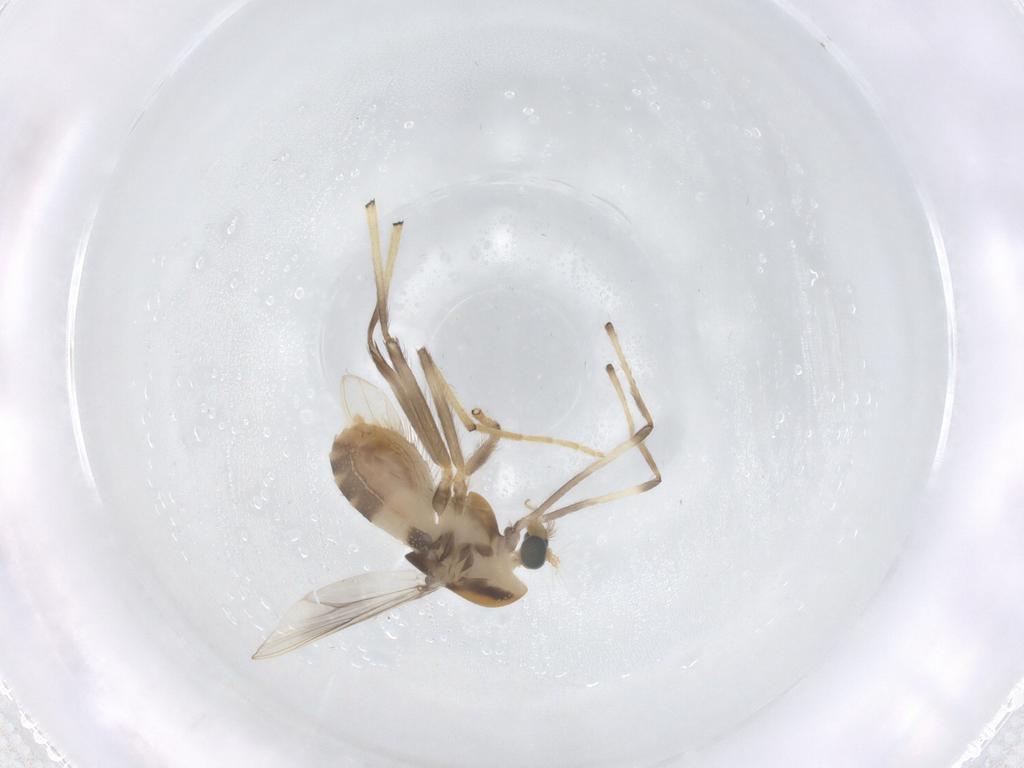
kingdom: Animalia
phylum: Arthropoda
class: Insecta
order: Diptera
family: Chironomidae
